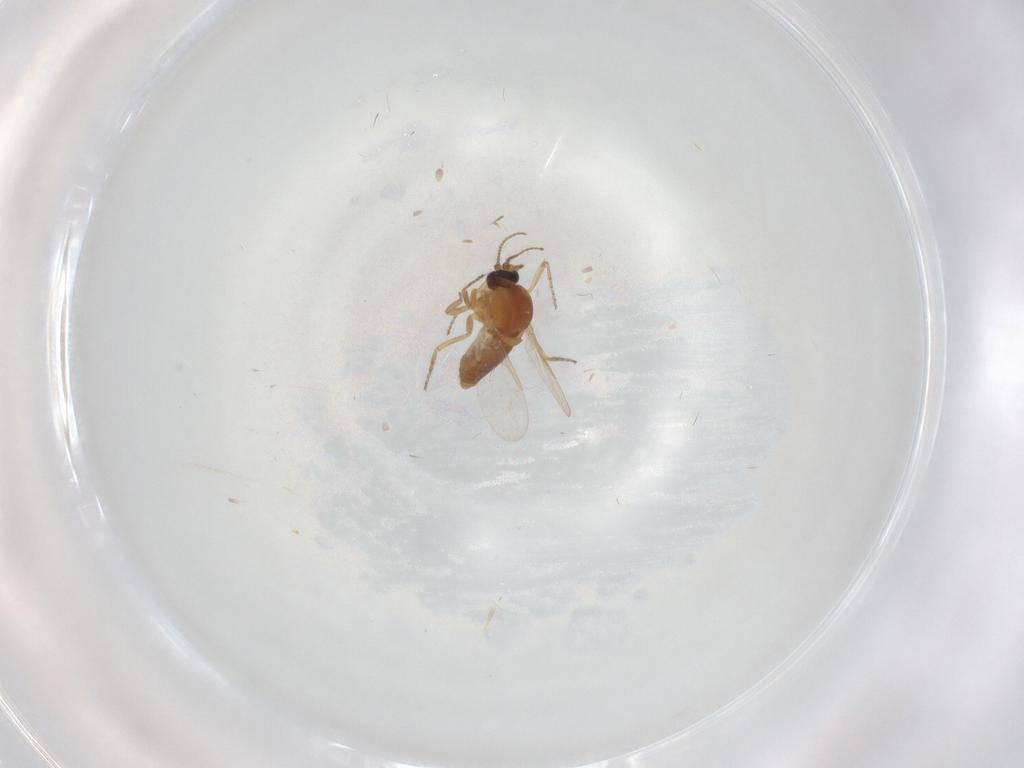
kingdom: Animalia
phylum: Arthropoda
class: Insecta
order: Diptera
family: Ceratopogonidae
